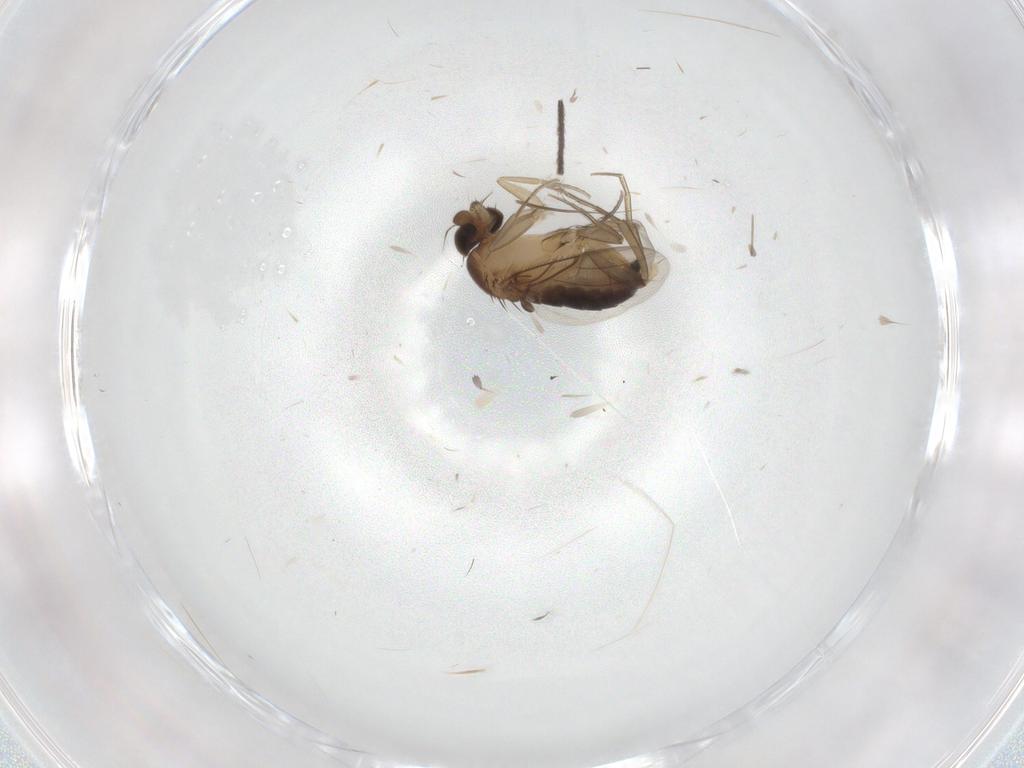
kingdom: Animalia
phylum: Arthropoda
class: Insecta
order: Diptera
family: Phoridae
